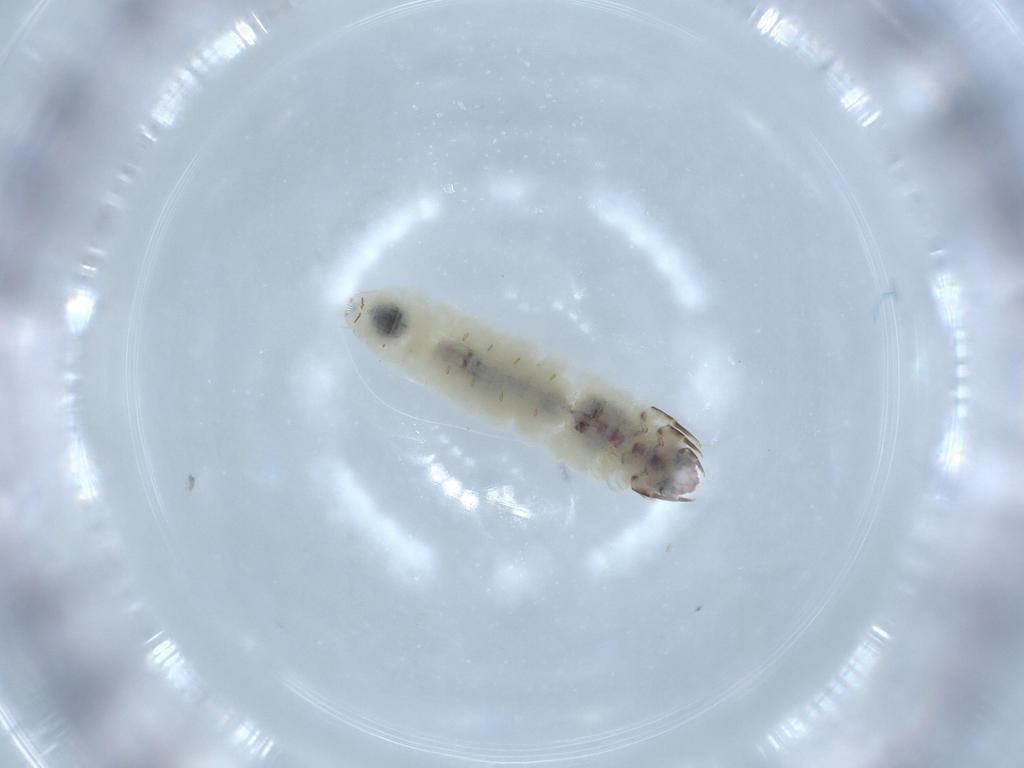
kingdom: Animalia
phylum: Arthropoda
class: Insecta
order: Lepidoptera
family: Tineidae
